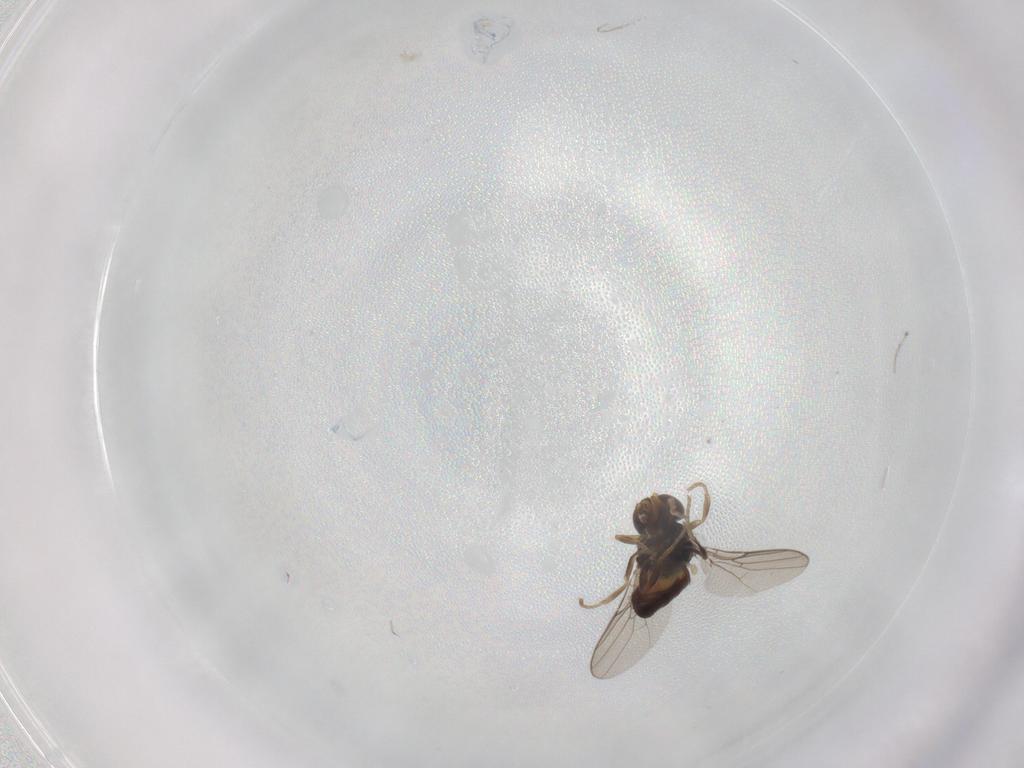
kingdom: Animalia
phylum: Arthropoda
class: Insecta
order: Diptera
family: Chloropidae
